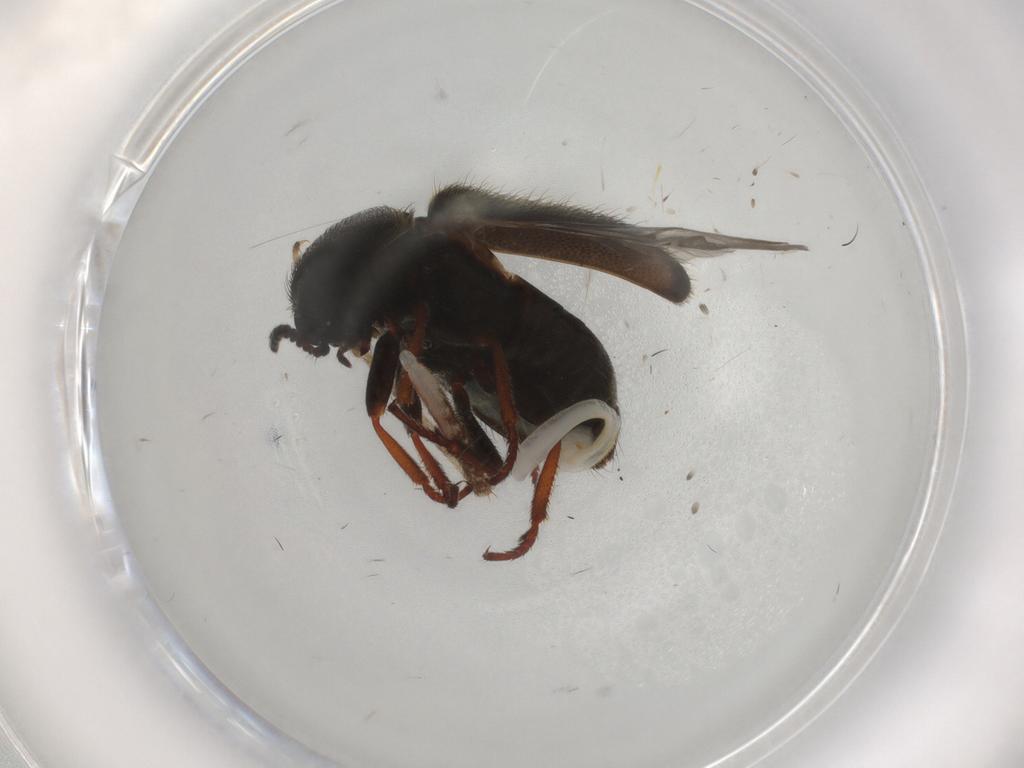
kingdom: Animalia
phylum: Arthropoda
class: Insecta
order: Coleoptera
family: Melyridae
